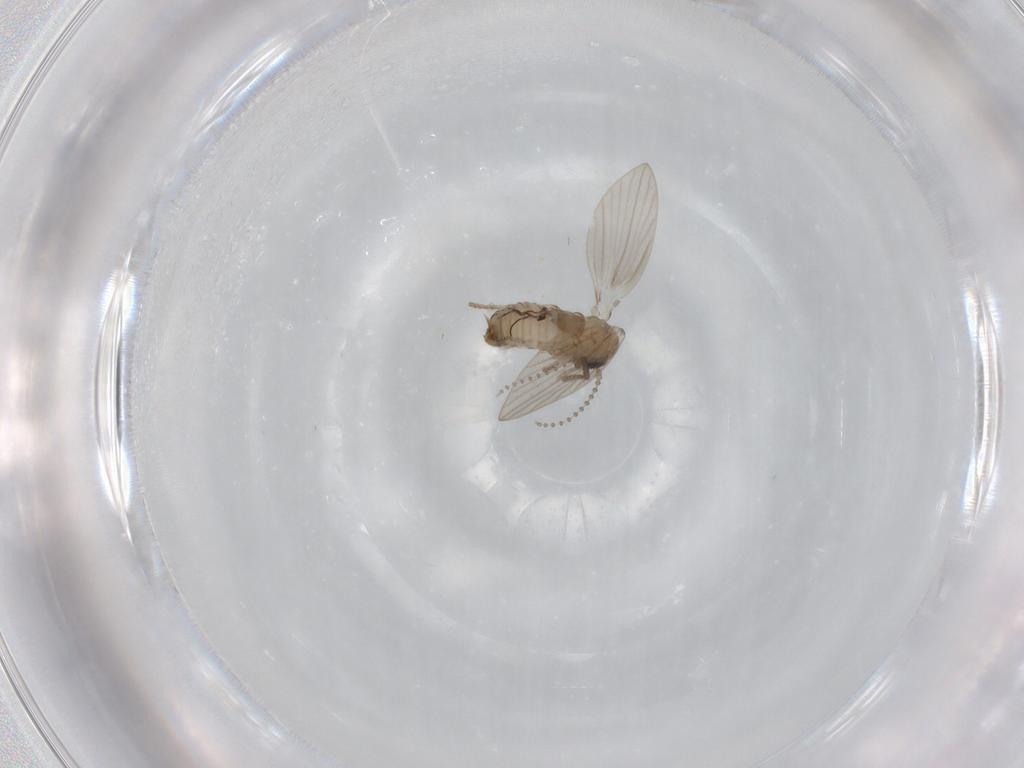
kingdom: Animalia
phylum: Arthropoda
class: Insecta
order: Diptera
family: Psychodidae
